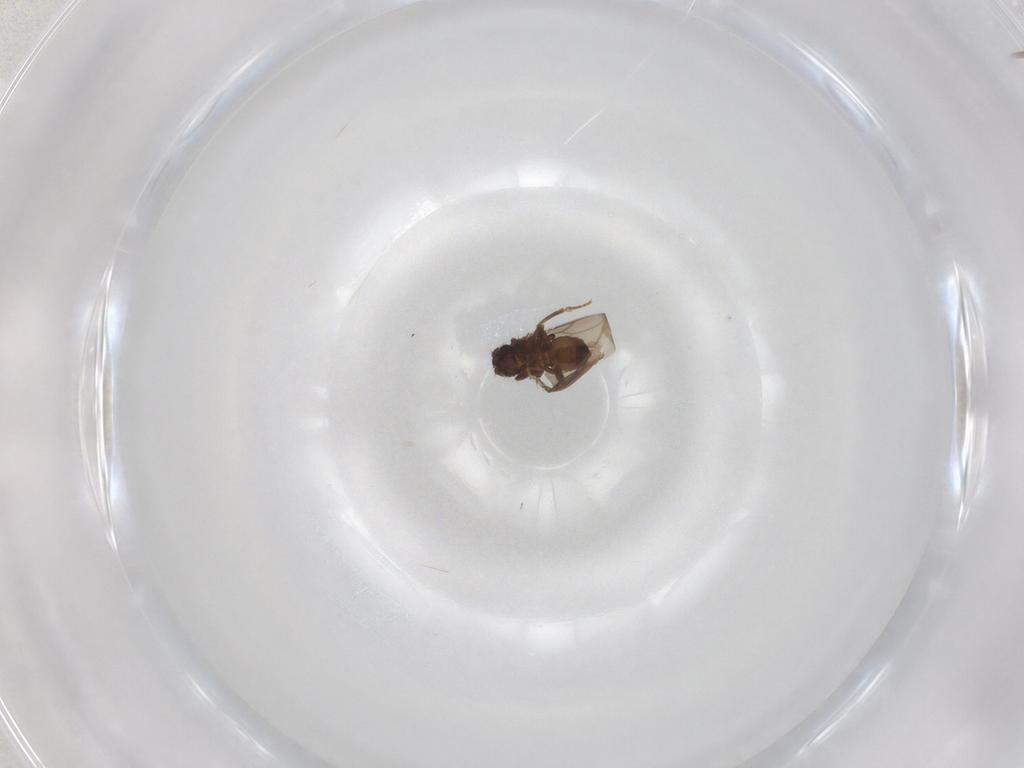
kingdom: Animalia
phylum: Arthropoda
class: Insecta
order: Diptera
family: Sphaeroceridae
